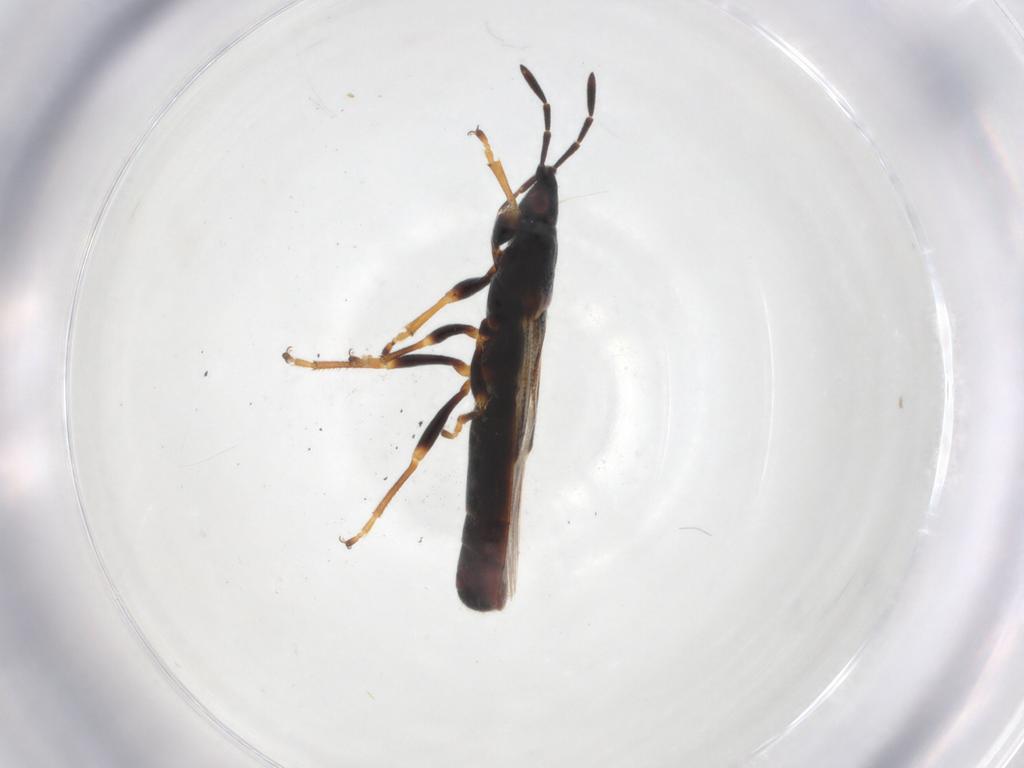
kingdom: Animalia
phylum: Arthropoda
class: Insecta
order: Hemiptera
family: Blissidae
